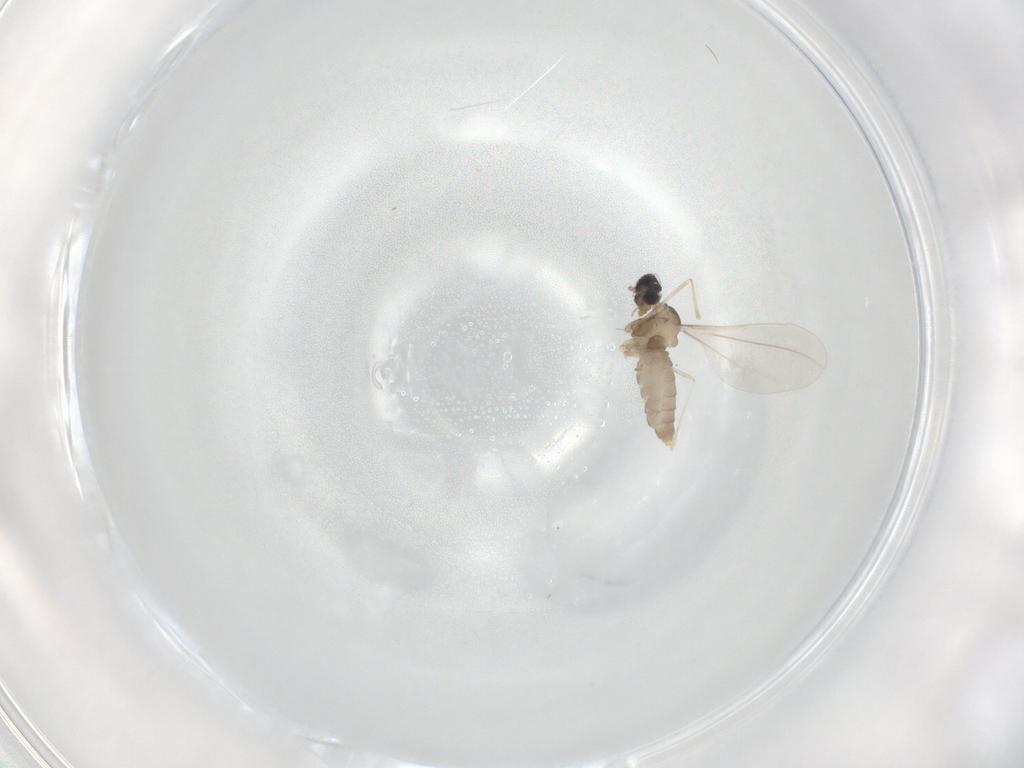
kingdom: Animalia
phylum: Arthropoda
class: Insecta
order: Diptera
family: Cecidomyiidae
